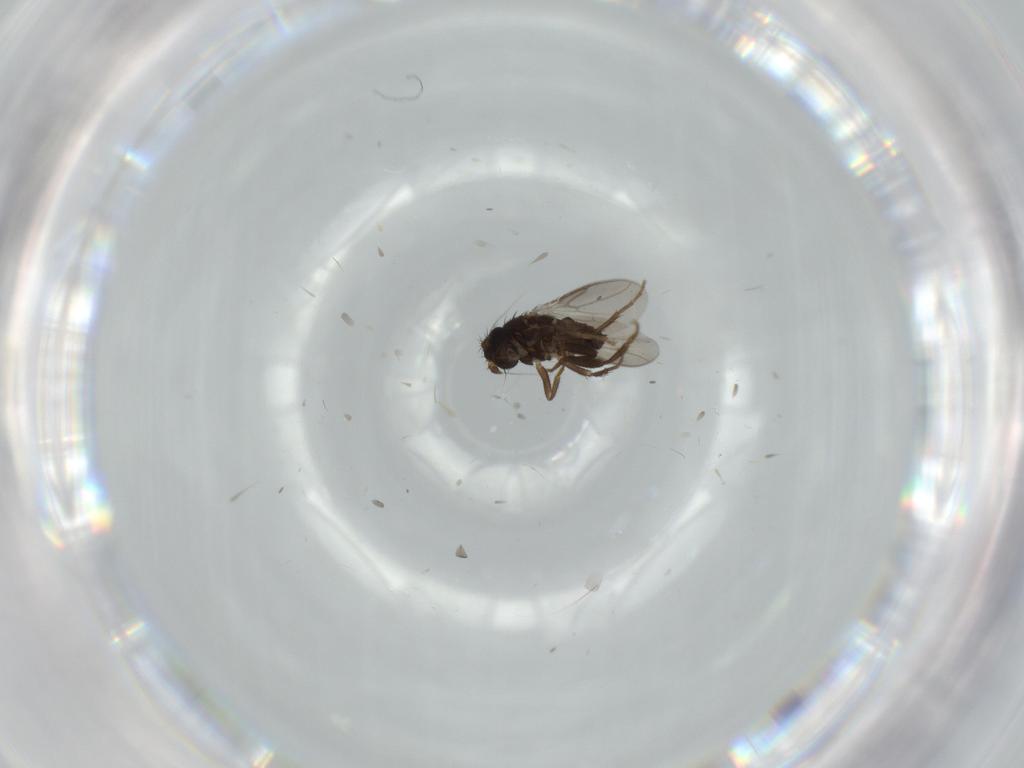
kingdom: Animalia
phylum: Arthropoda
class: Insecta
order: Diptera
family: Sphaeroceridae
